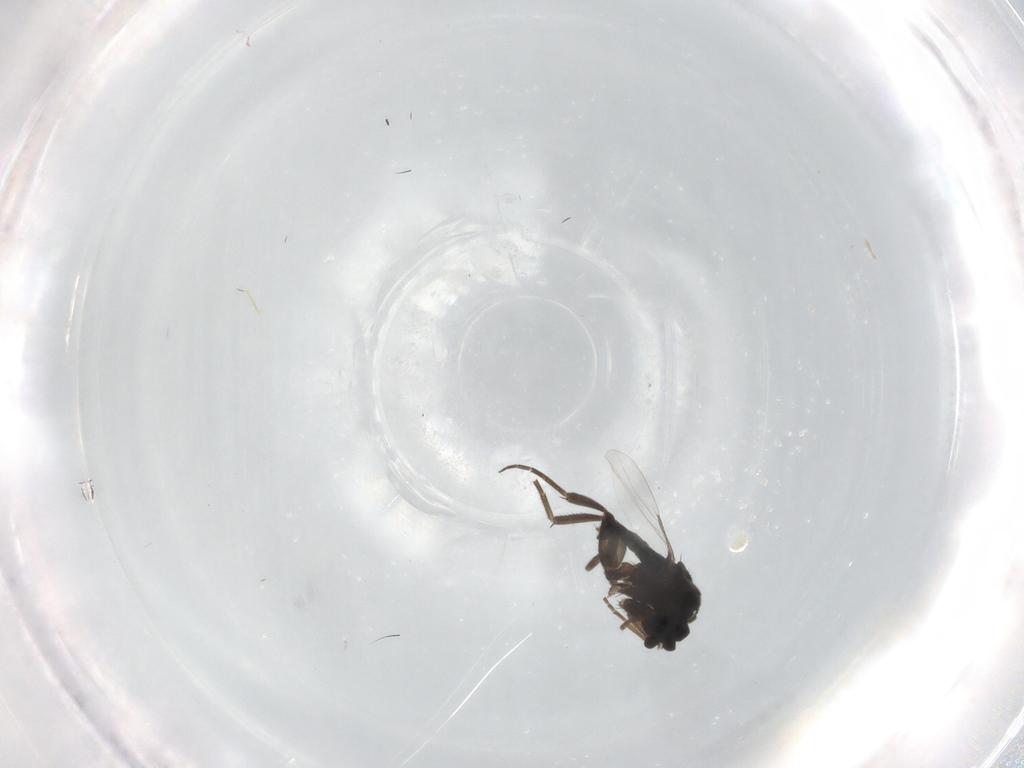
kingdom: Animalia
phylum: Arthropoda
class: Insecta
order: Diptera
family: Phoridae
